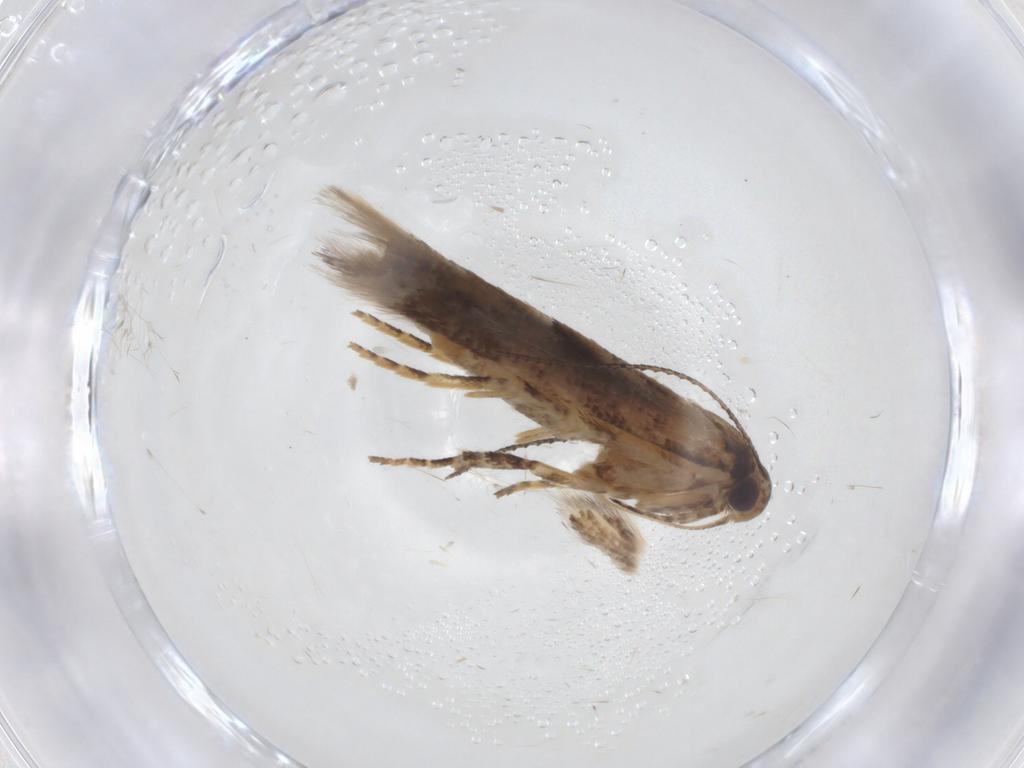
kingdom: Animalia
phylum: Arthropoda
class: Insecta
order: Lepidoptera
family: Gelechiidae
